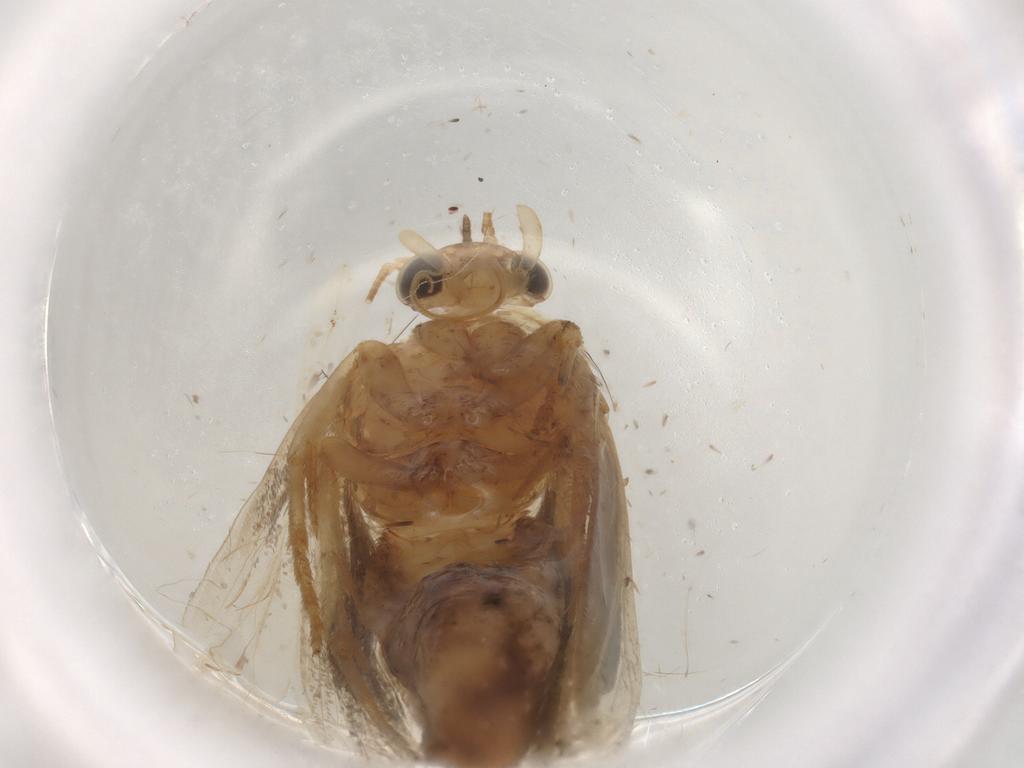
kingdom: Animalia
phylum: Arthropoda
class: Insecta
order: Lepidoptera
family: Immidae
